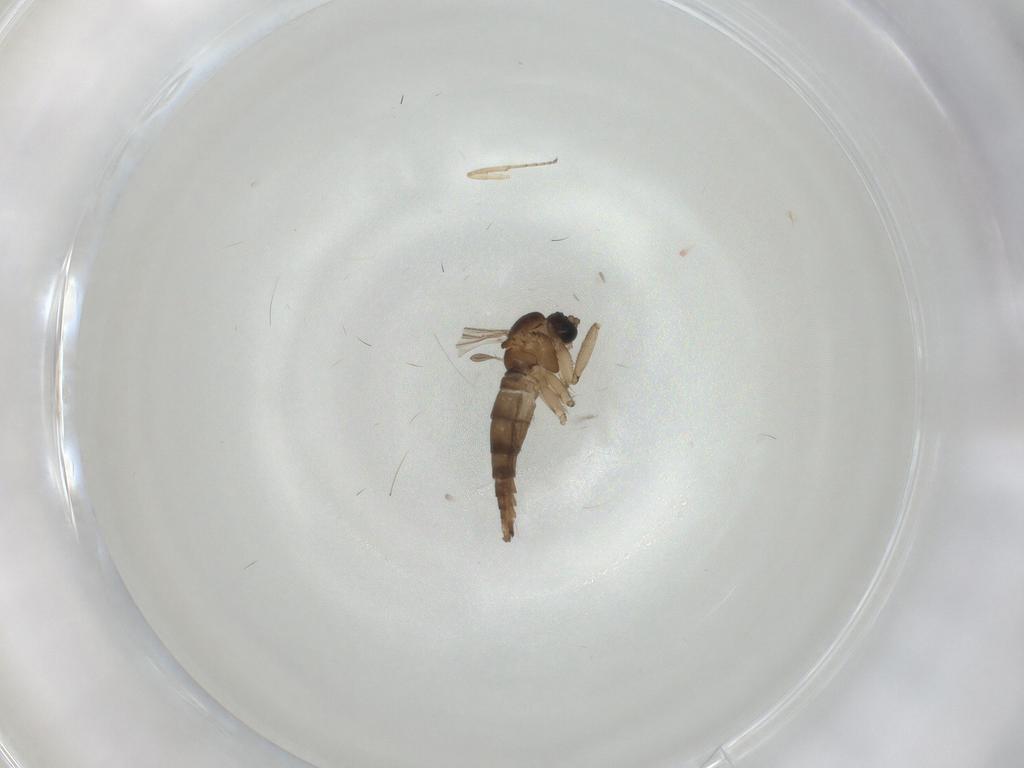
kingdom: Animalia
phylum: Arthropoda
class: Insecta
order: Diptera
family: Sciaridae
